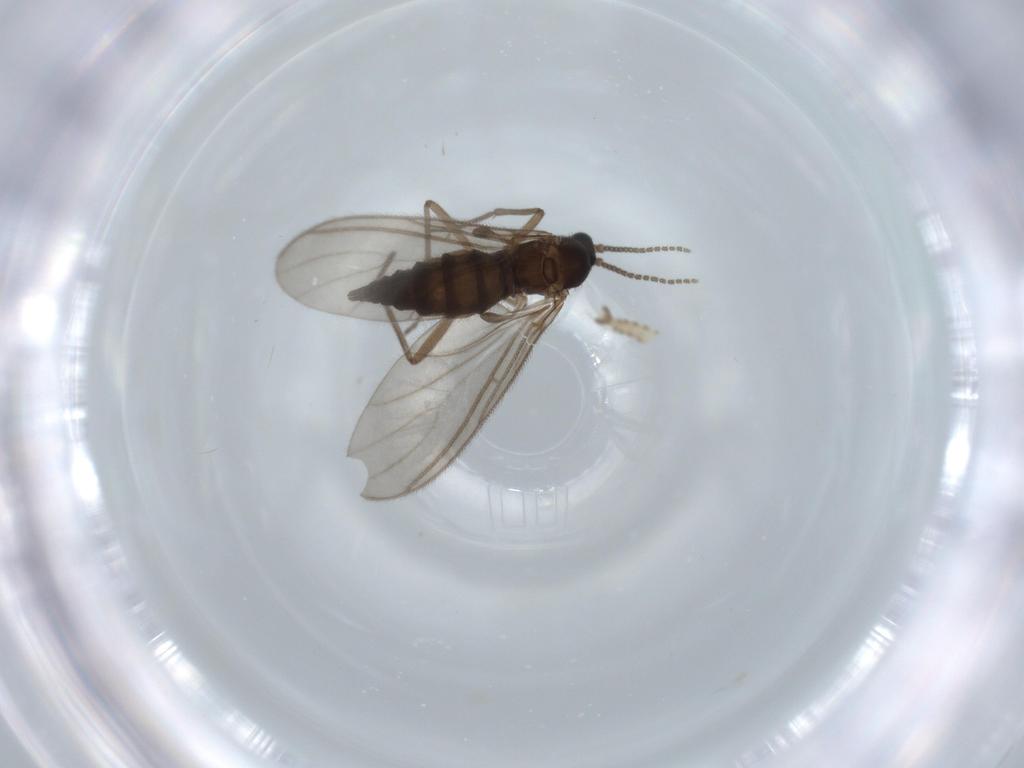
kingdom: Animalia
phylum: Arthropoda
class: Insecta
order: Diptera
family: Sciaridae
